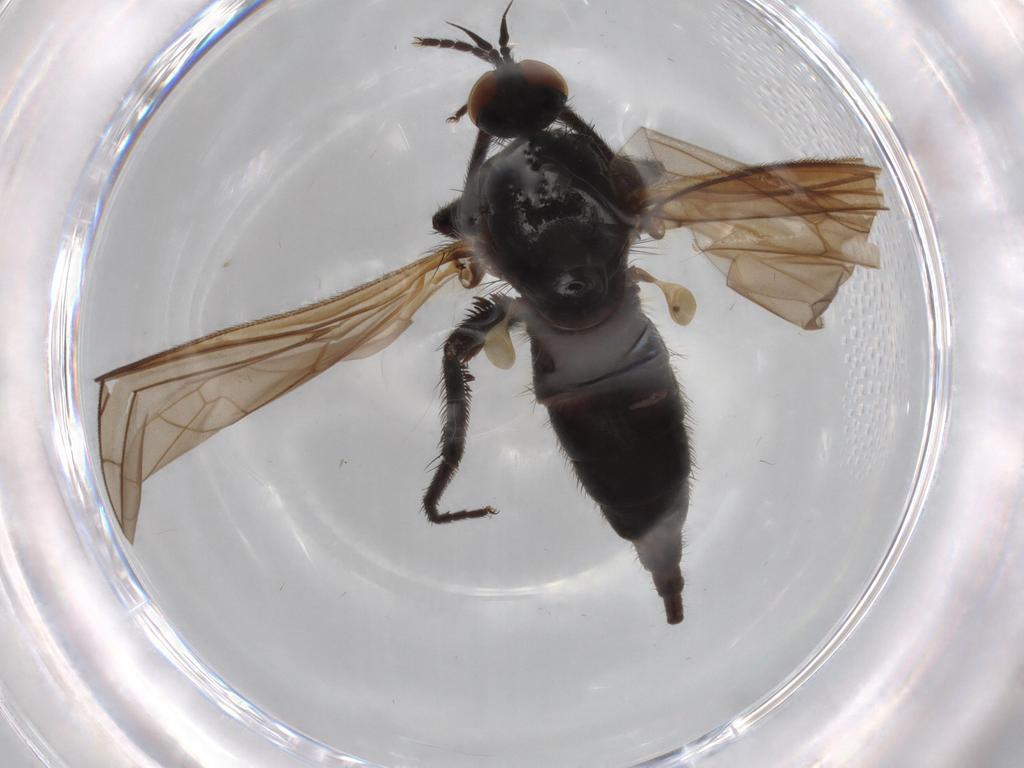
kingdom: Animalia
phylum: Arthropoda
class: Insecta
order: Diptera
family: Empididae
